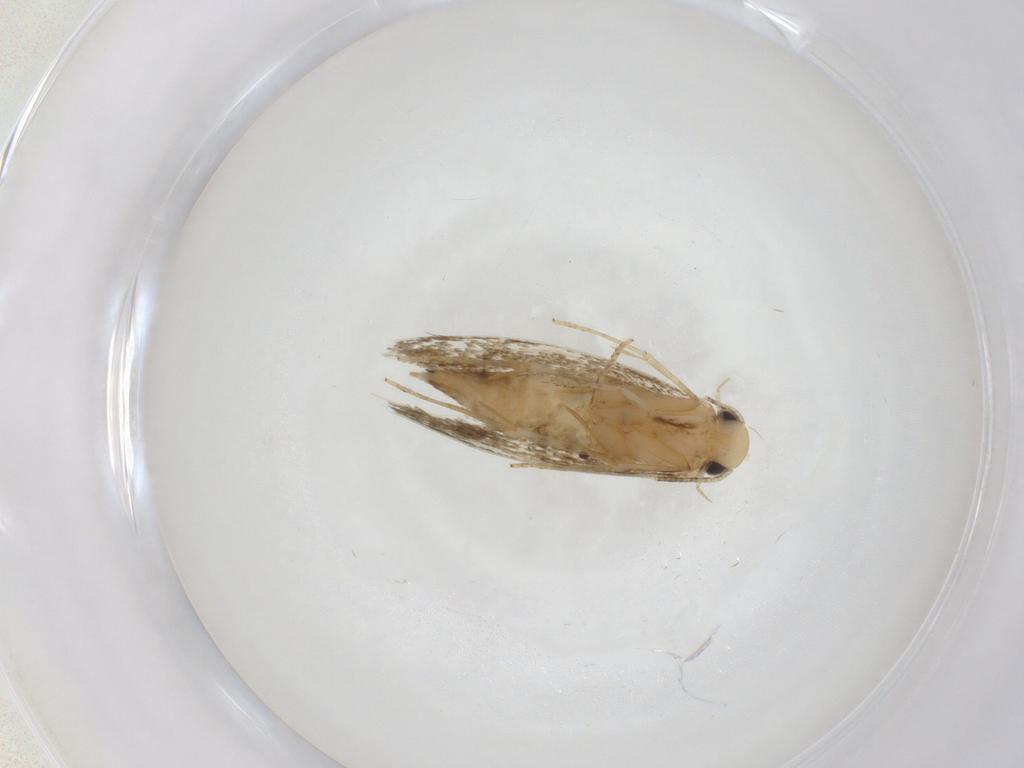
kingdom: Animalia
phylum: Arthropoda
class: Insecta
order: Lepidoptera
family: Tineidae
